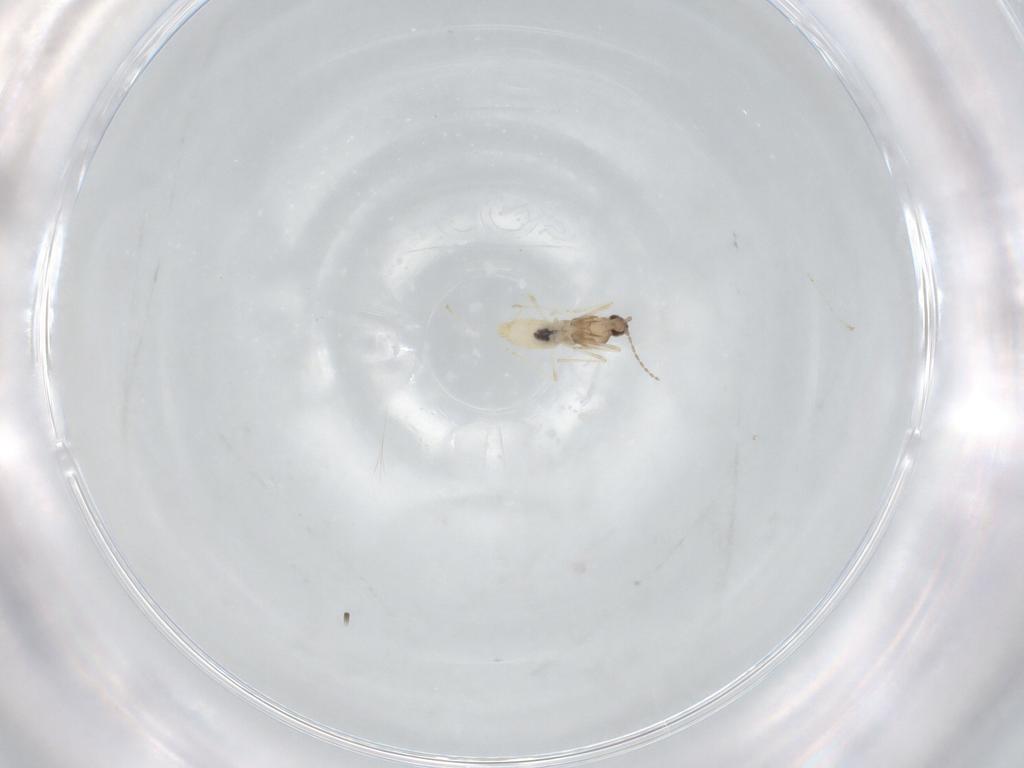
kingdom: Animalia
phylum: Arthropoda
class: Insecta
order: Diptera
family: Cecidomyiidae
